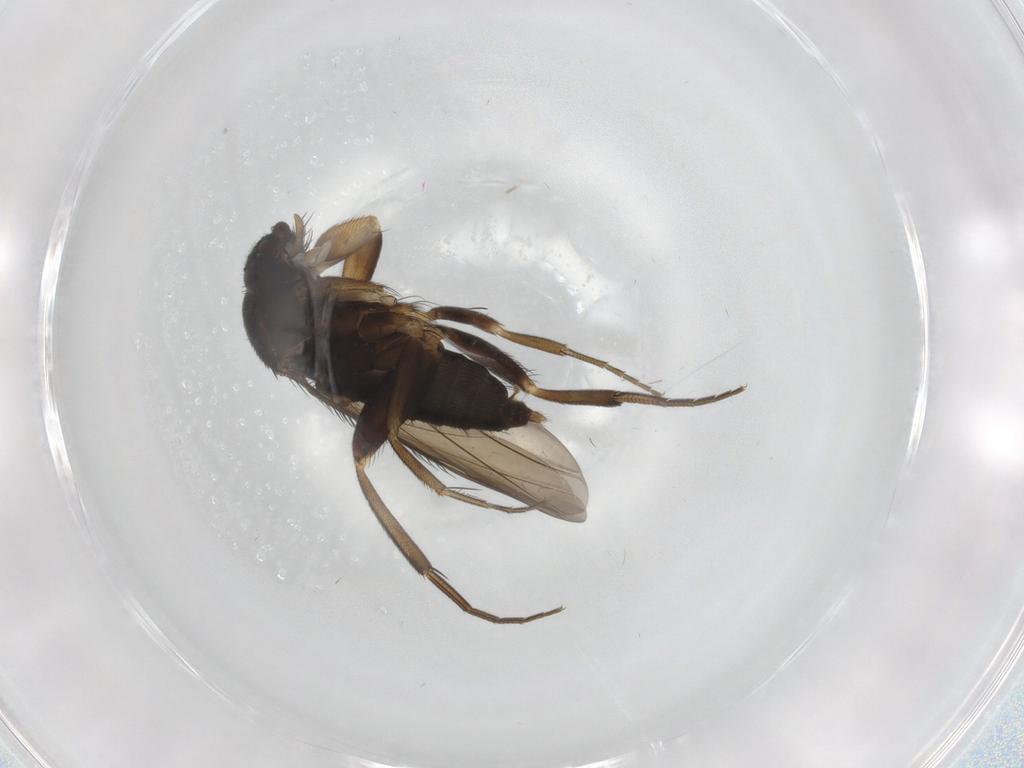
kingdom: Animalia
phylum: Arthropoda
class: Insecta
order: Diptera
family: Phoridae
